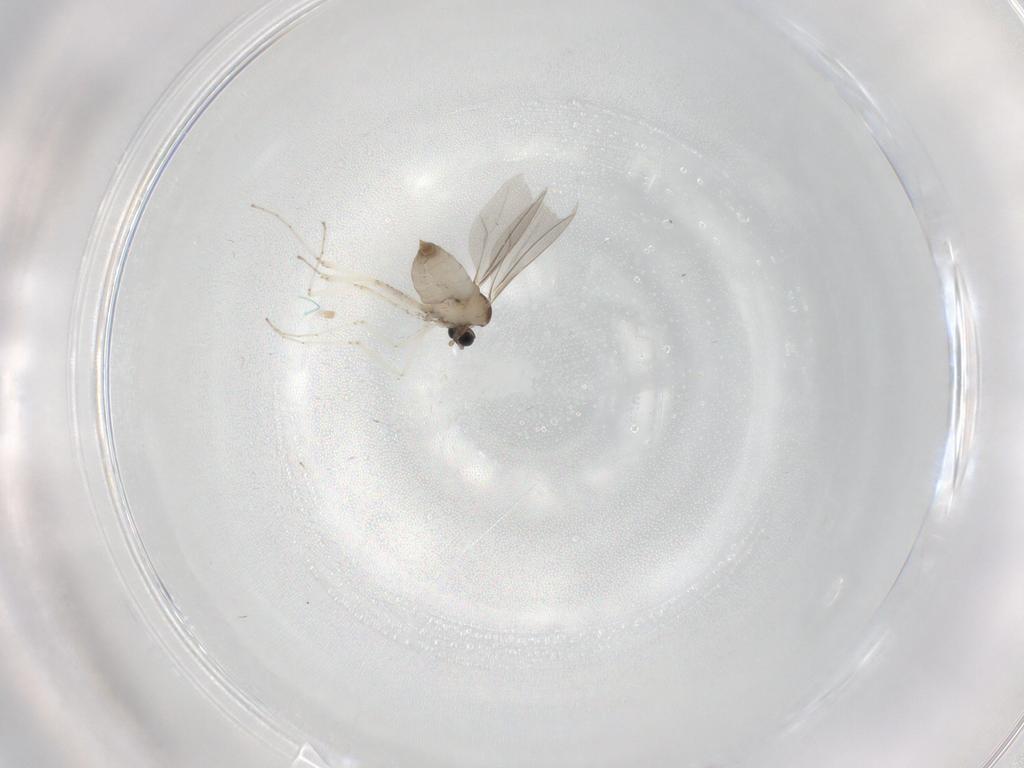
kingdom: Animalia
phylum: Arthropoda
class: Insecta
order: Diptera
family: Cecidomyiidae
